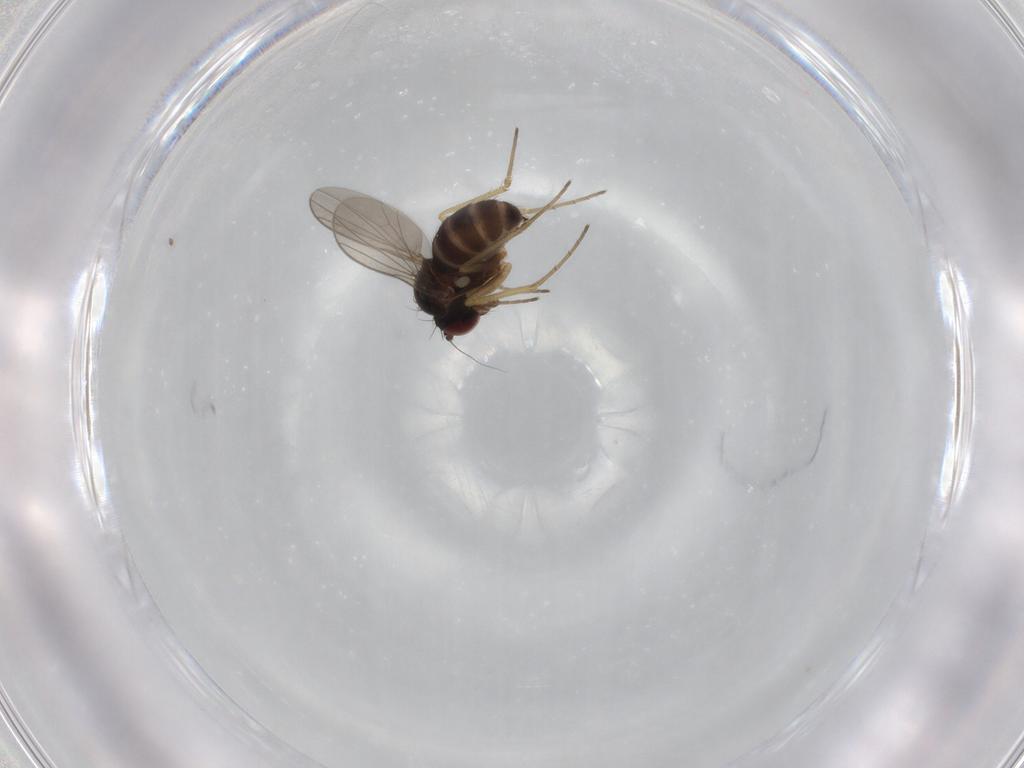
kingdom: Animalia
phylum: Arthropoda
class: Insecta
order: Diptera
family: Dolichopodidae
